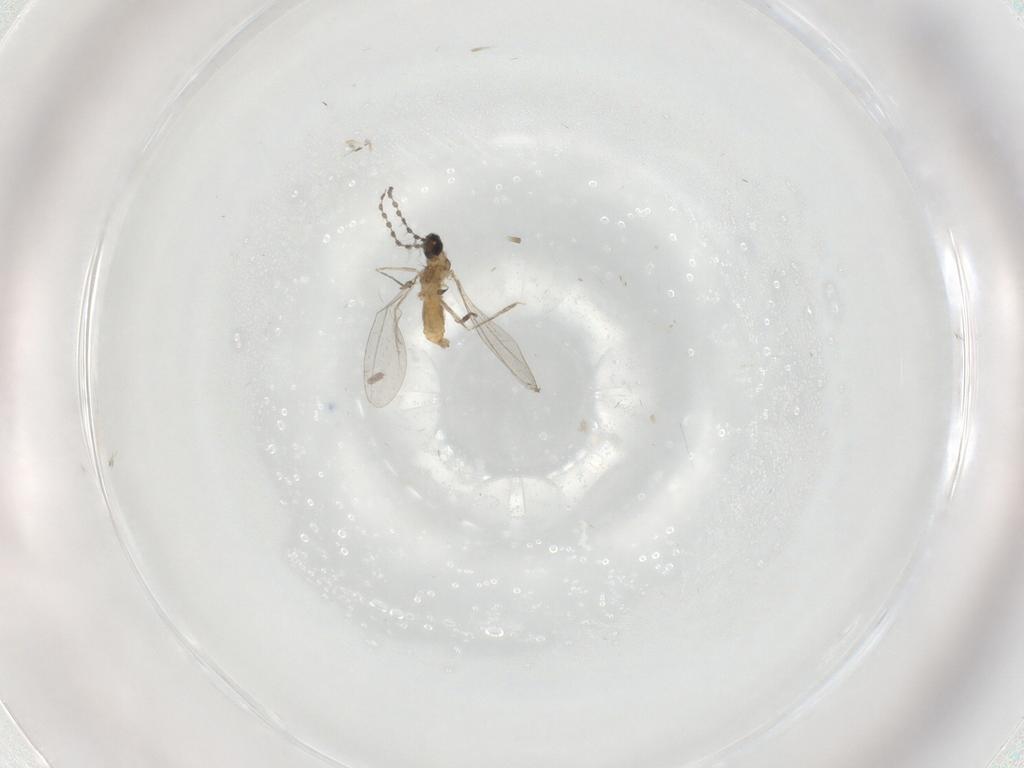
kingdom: Animalia
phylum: Arthropoda
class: Insecta
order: Diptera
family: Cecidomyiidae
